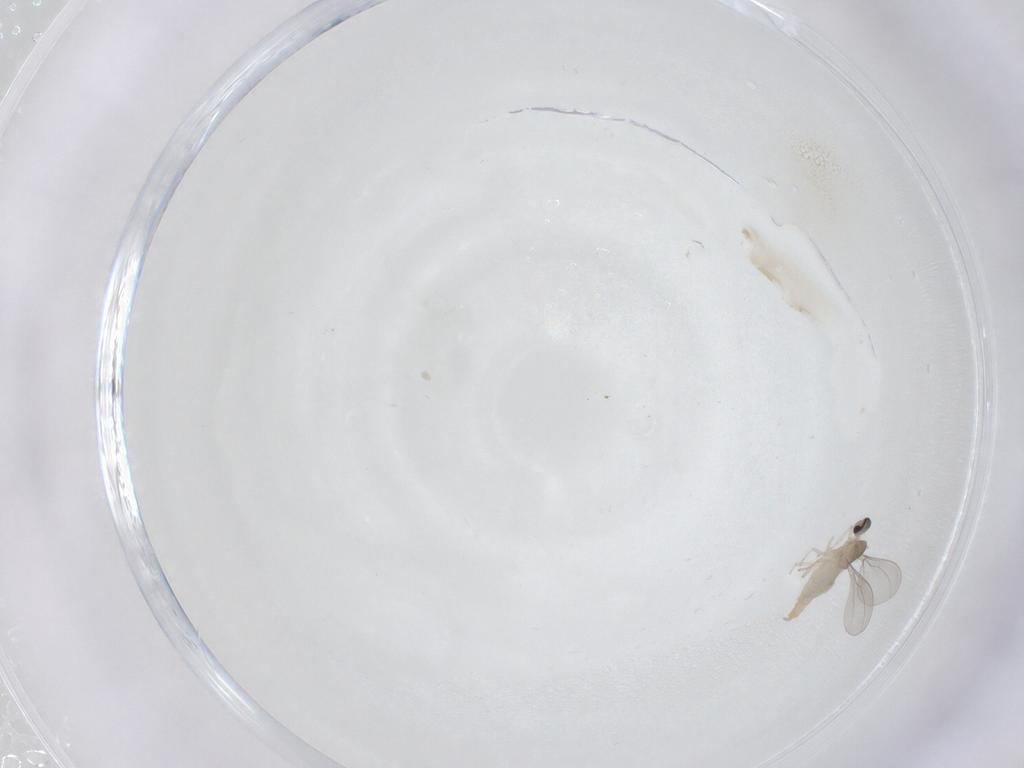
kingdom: Animalia
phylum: Arthropoda
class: Insecta
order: Diptera
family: Cecidomyiidae
